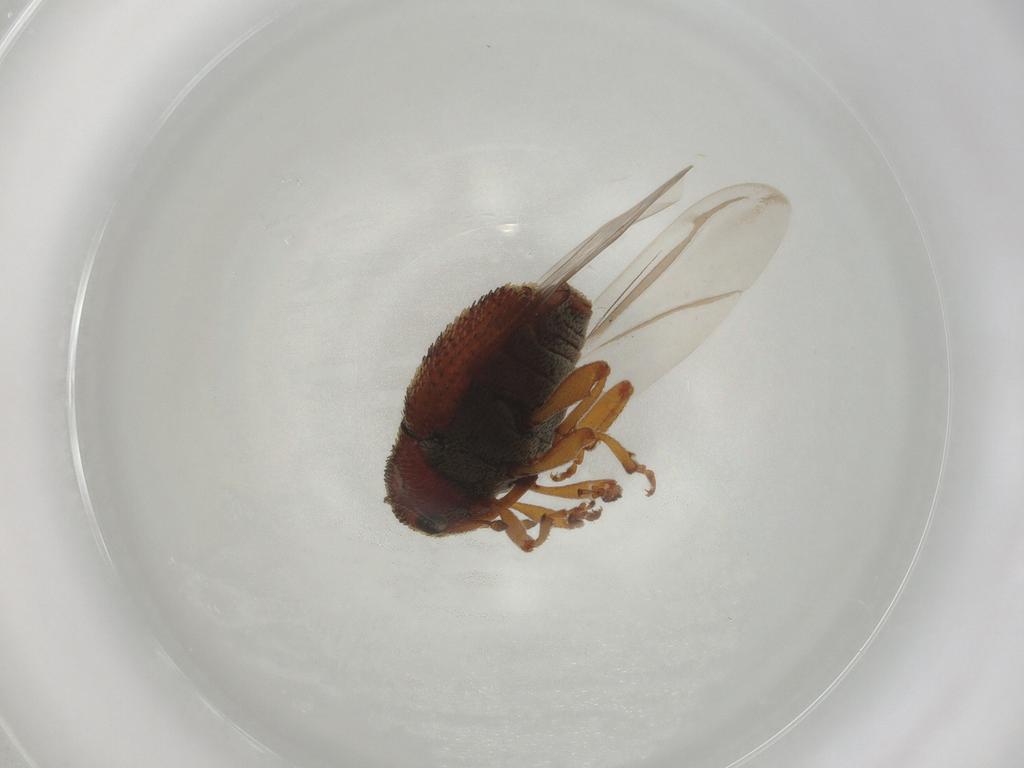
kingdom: Animalia
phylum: Arthropoda
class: Insecta
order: Coleoptera
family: Curculionidae
